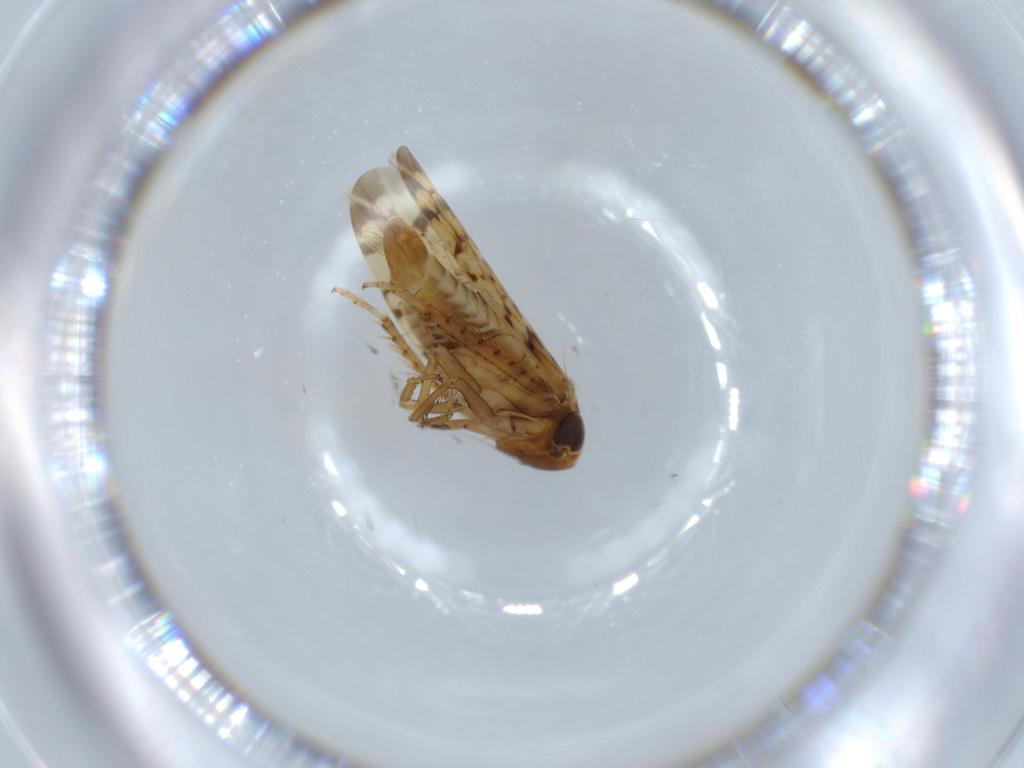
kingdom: Animalia
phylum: Arthropoda
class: Insecta
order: Hemiptera
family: Cicadellidae
